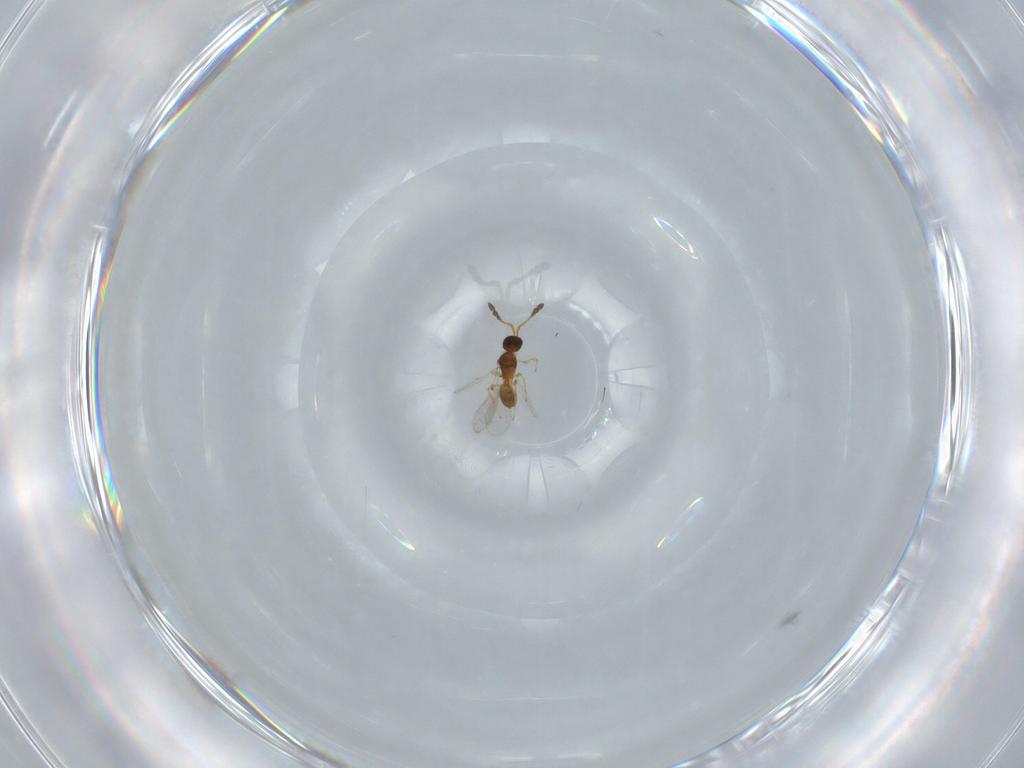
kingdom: Animalia
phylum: Arthropoda
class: Insecta
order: Hymenoptera
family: Diapriidae
